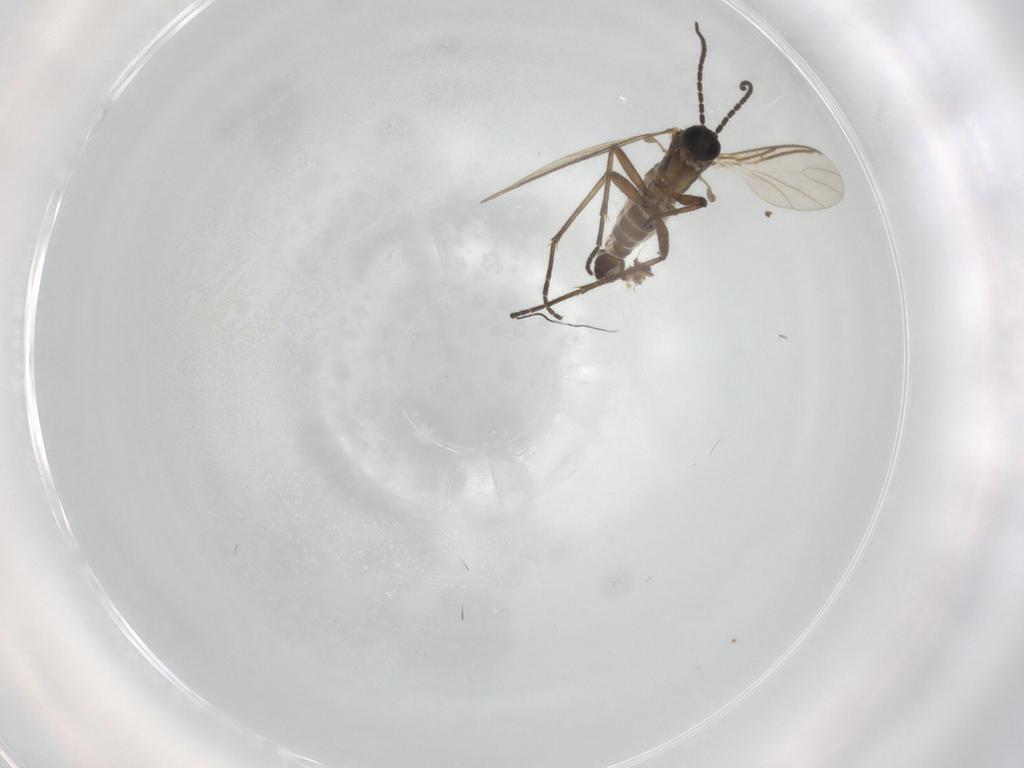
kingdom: Animalia
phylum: Arthropoda
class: Insecta
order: Diptera
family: Sciaridae
